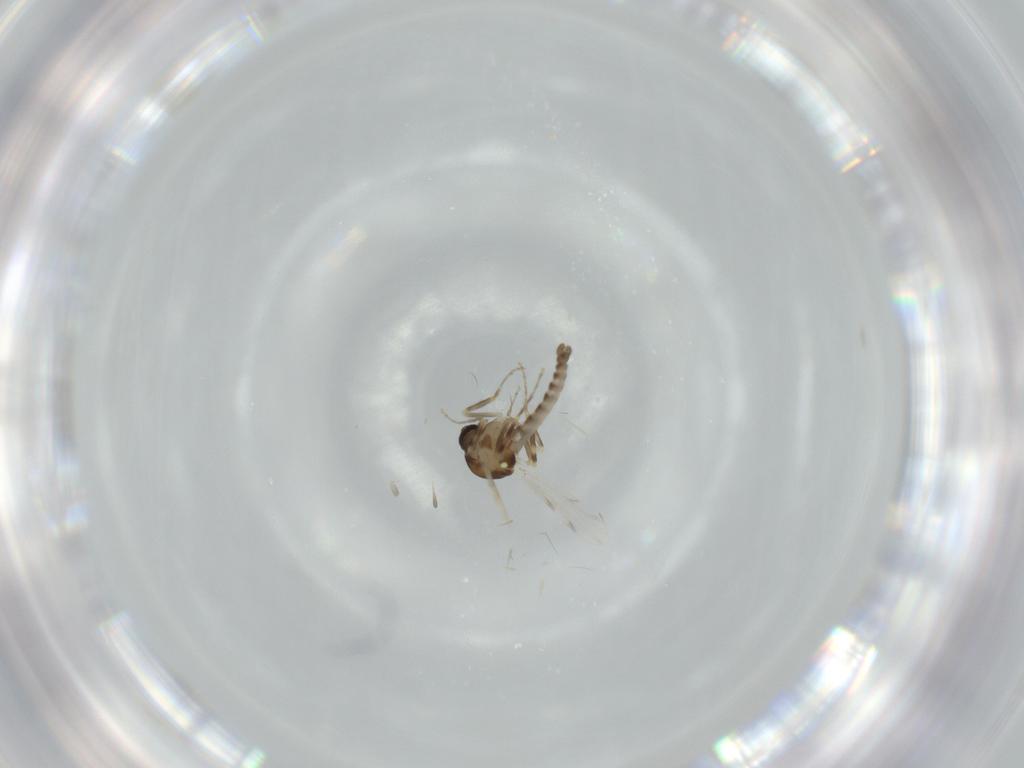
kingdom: Animalia
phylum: Arthropoda
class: Insecta
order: Diptera
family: Ceratopogonidae
